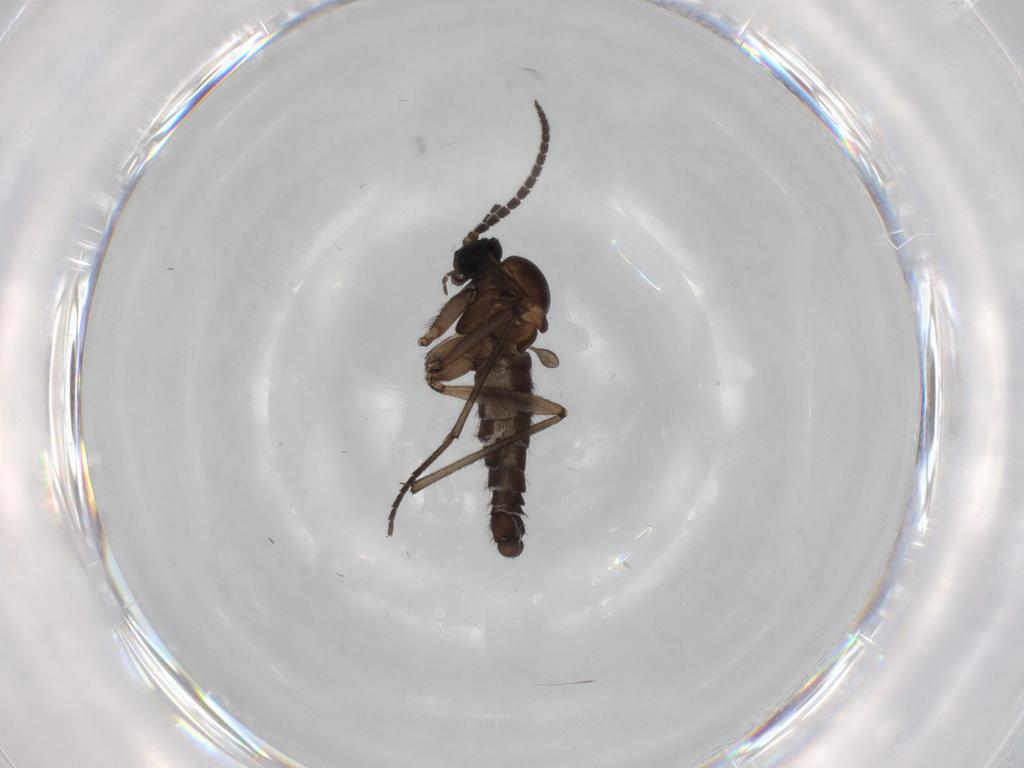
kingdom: Animalia
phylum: Arthropoda
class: Insecta
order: Diptera
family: Sciaridae
